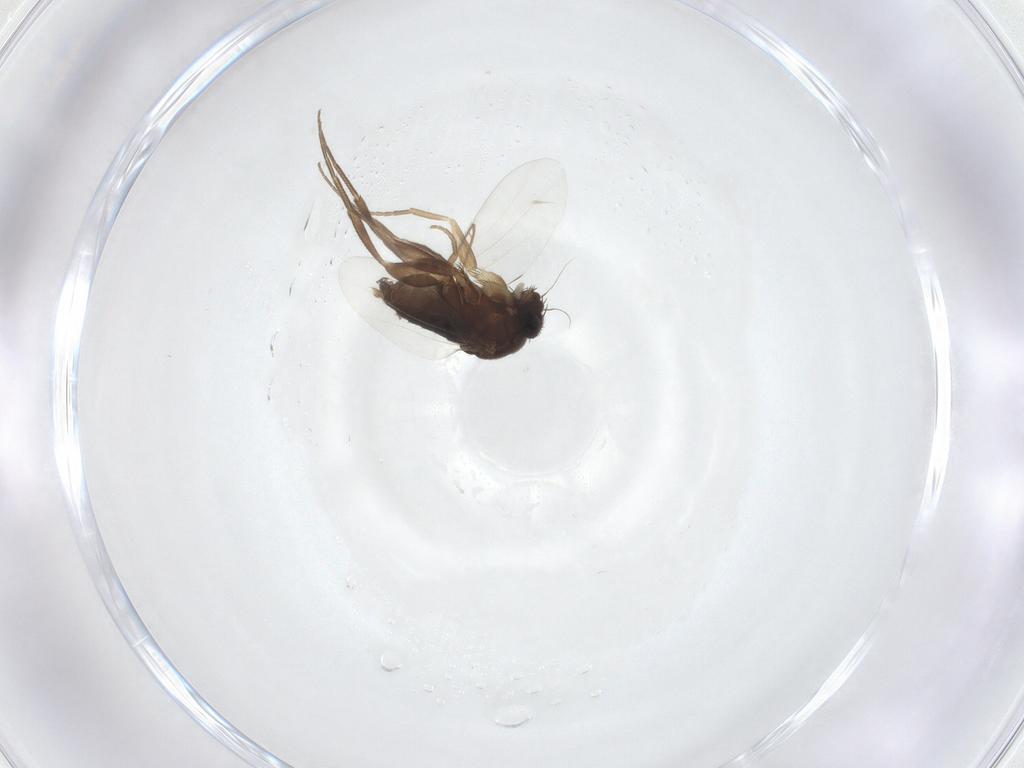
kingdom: Animalia
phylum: Arthropoda
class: Insecta
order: Diptera
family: Phoridae
